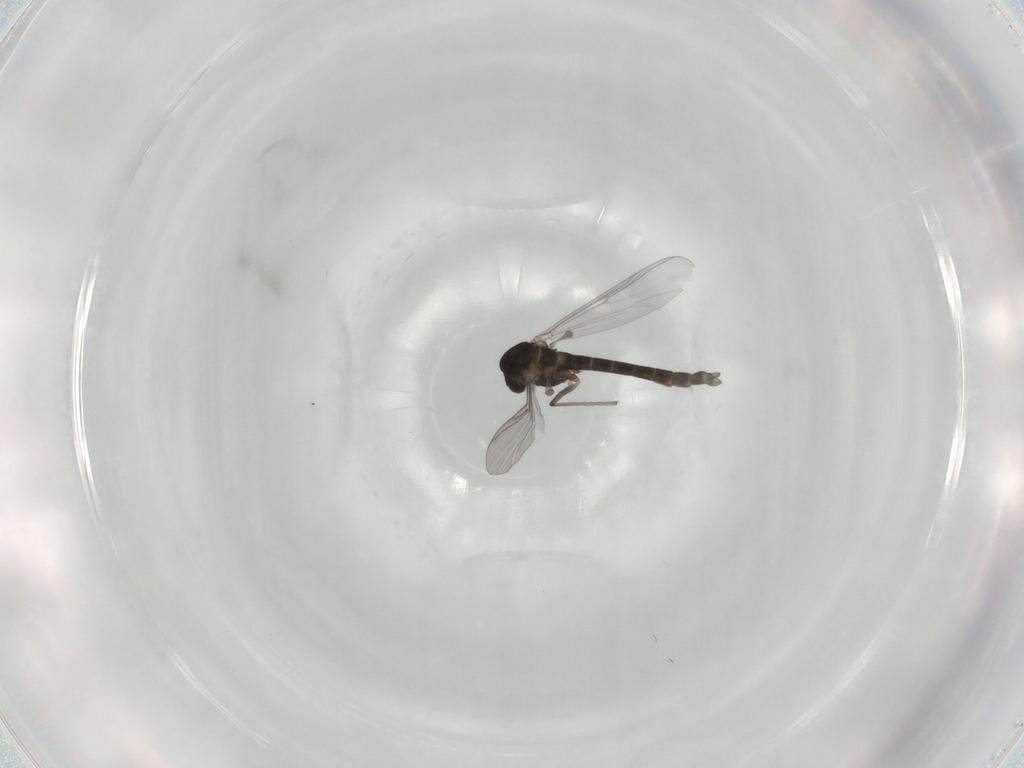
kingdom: Animalia
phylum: Arthropoda
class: Insecta
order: Diptera
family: Chironomidae
